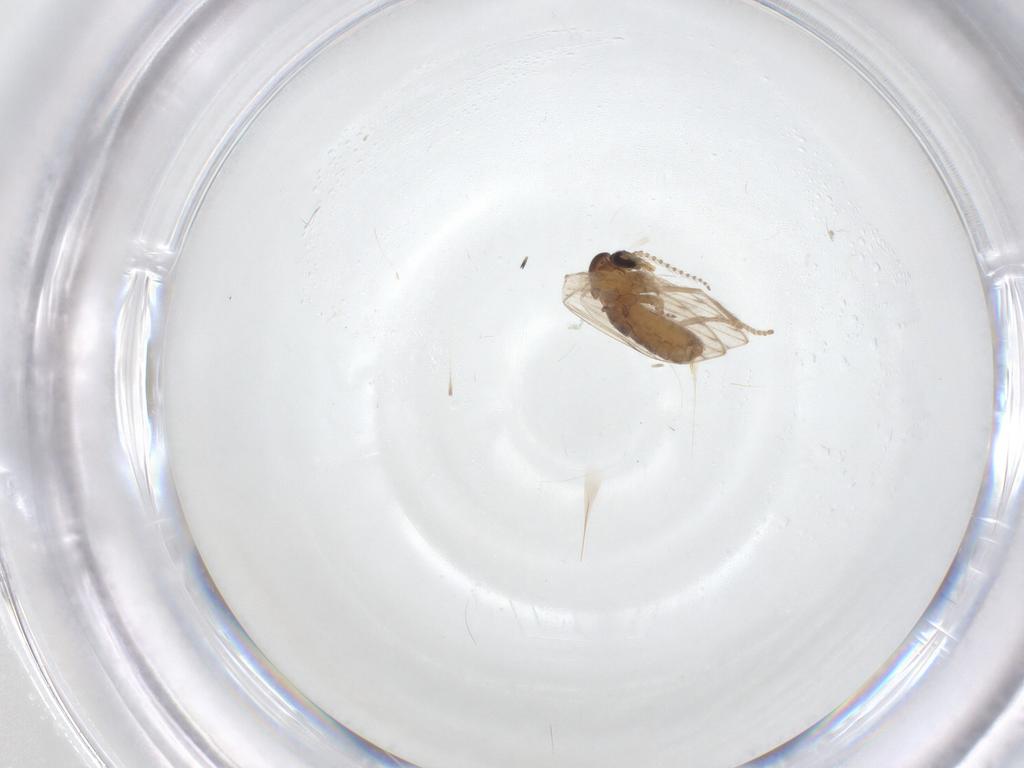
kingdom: Animalia
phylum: Arthropoda
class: Insecta
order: Diptera
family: Psychodidae
